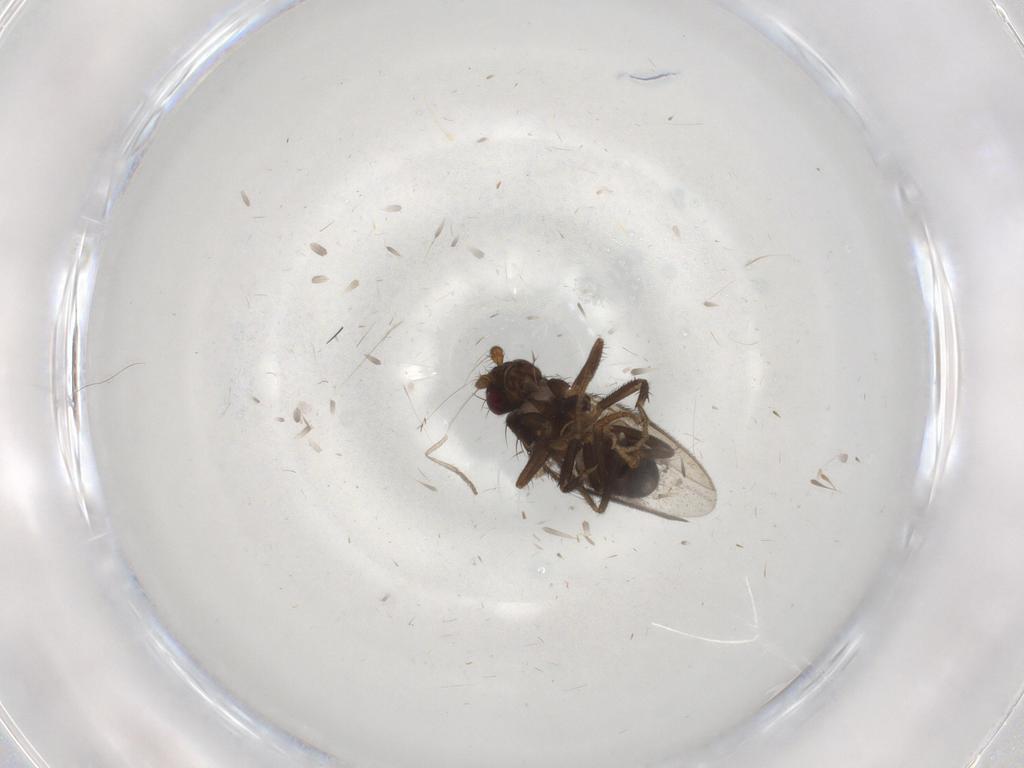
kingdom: Animalia
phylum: Arthropoda
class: Insecta
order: Diptera
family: Sphaeroceridae
